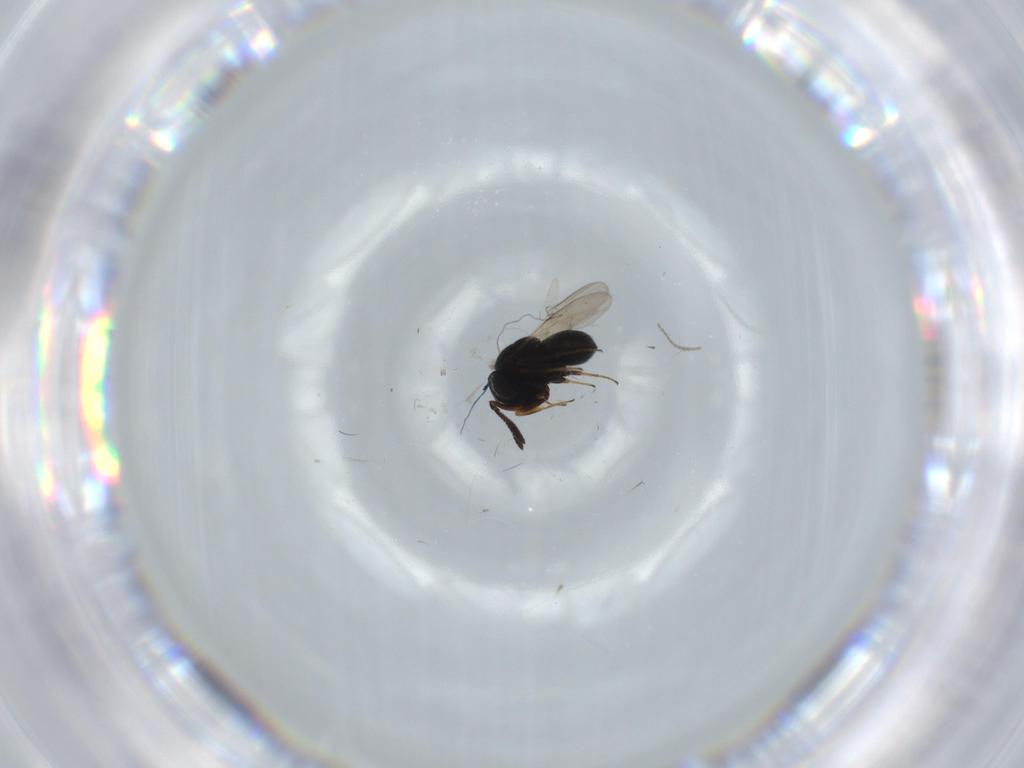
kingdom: Animalia
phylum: Arthropoda
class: Insecta
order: Hymenoptera
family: Scelionidae
